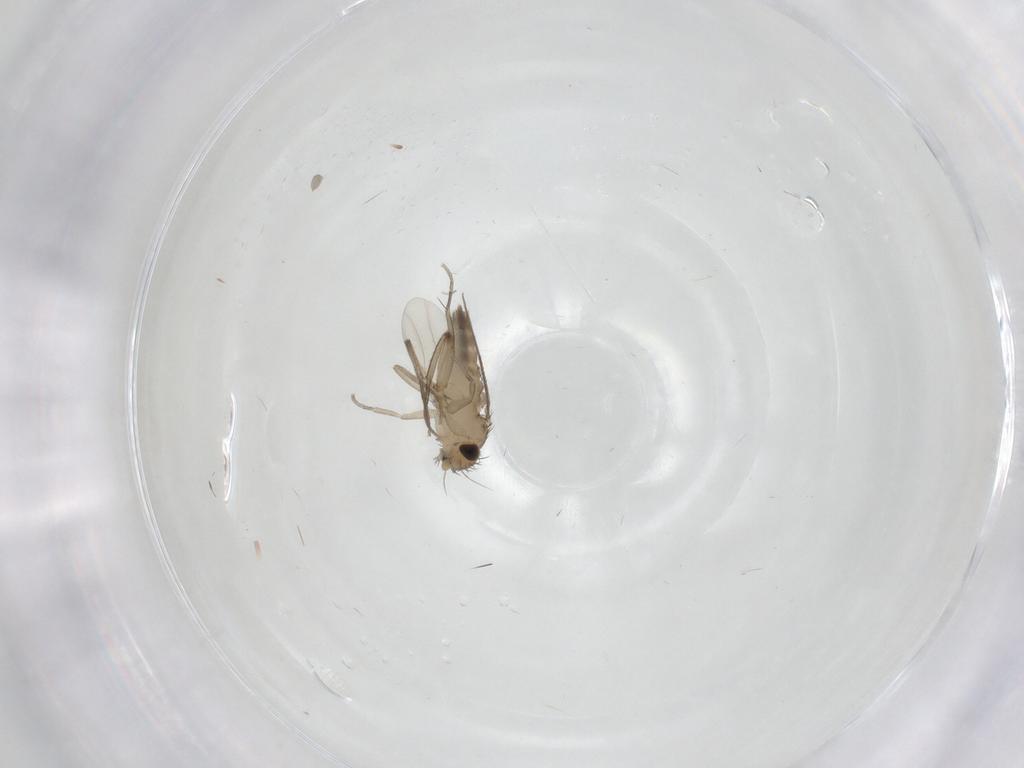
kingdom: Animalia
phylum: Arthropoda
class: Insecta
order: Diptera
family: Phoridae
